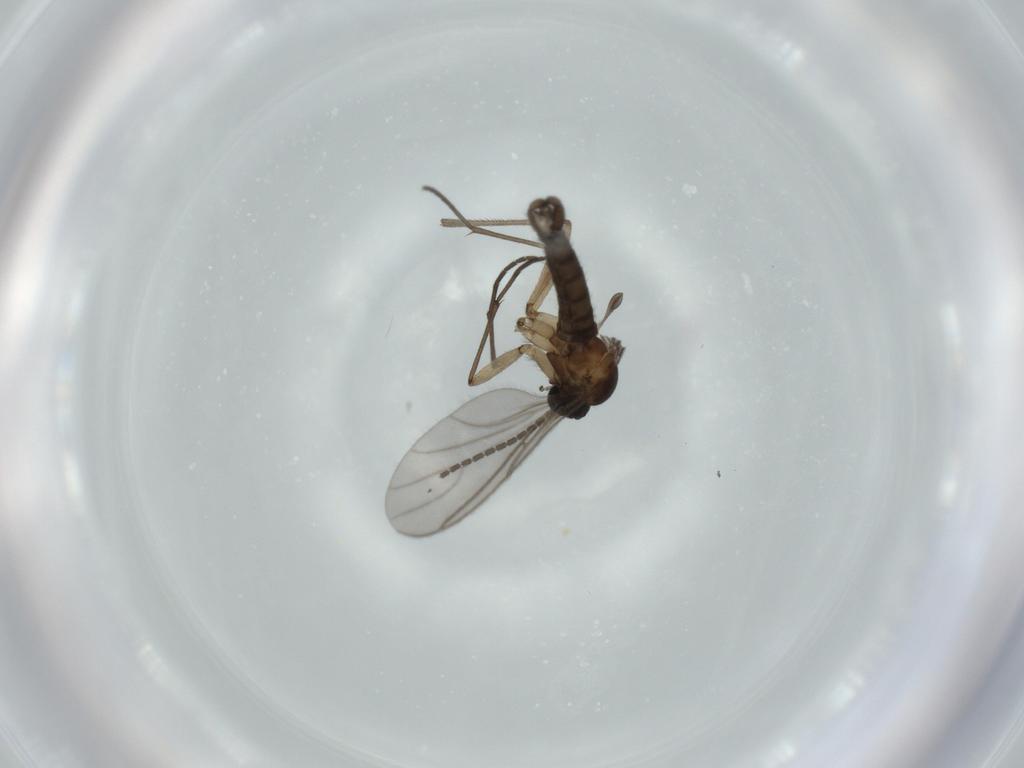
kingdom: Animalia
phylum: Arthropoda
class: Insecta
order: Diptera
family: Sciaridae
